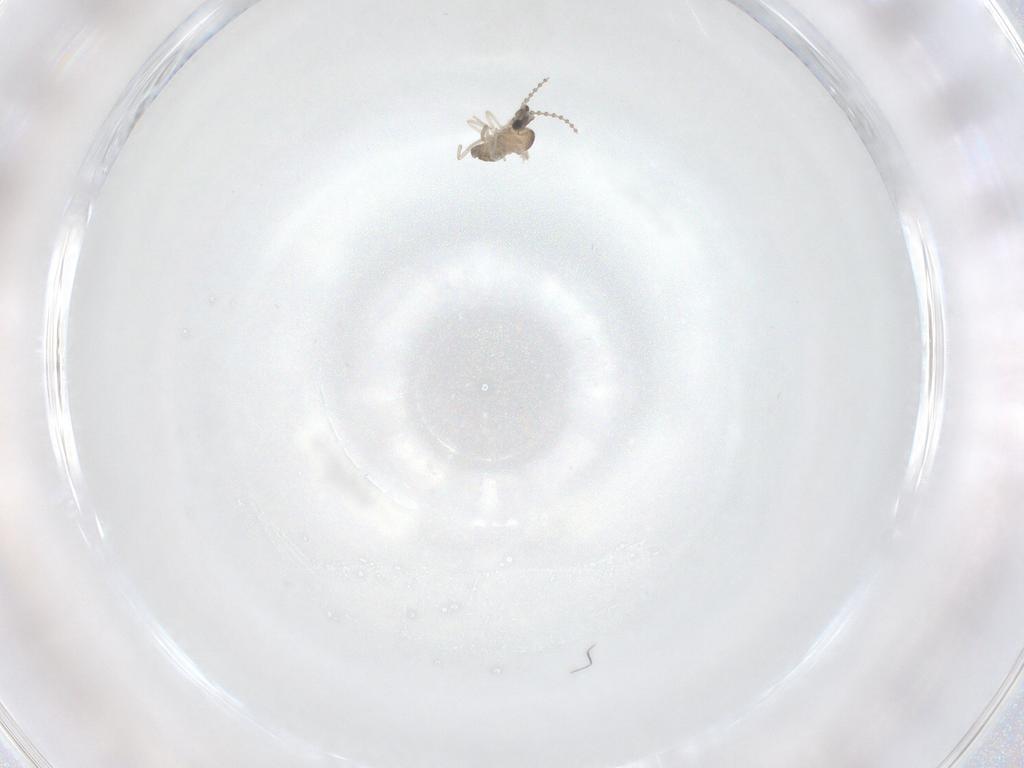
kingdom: Animalia
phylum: Arthropoda
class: Insecta
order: Diptera
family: Cecidomyiidae
